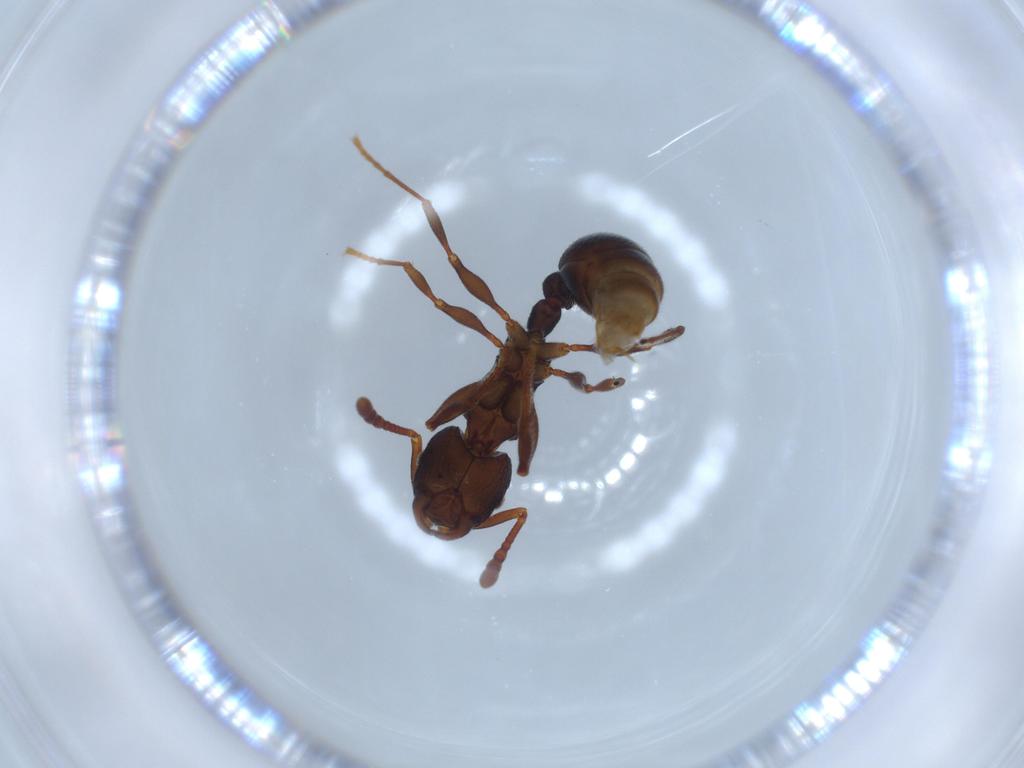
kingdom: Animalia
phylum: Arthropoda
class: Insecta
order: Hymenoptera
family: Formicidae
